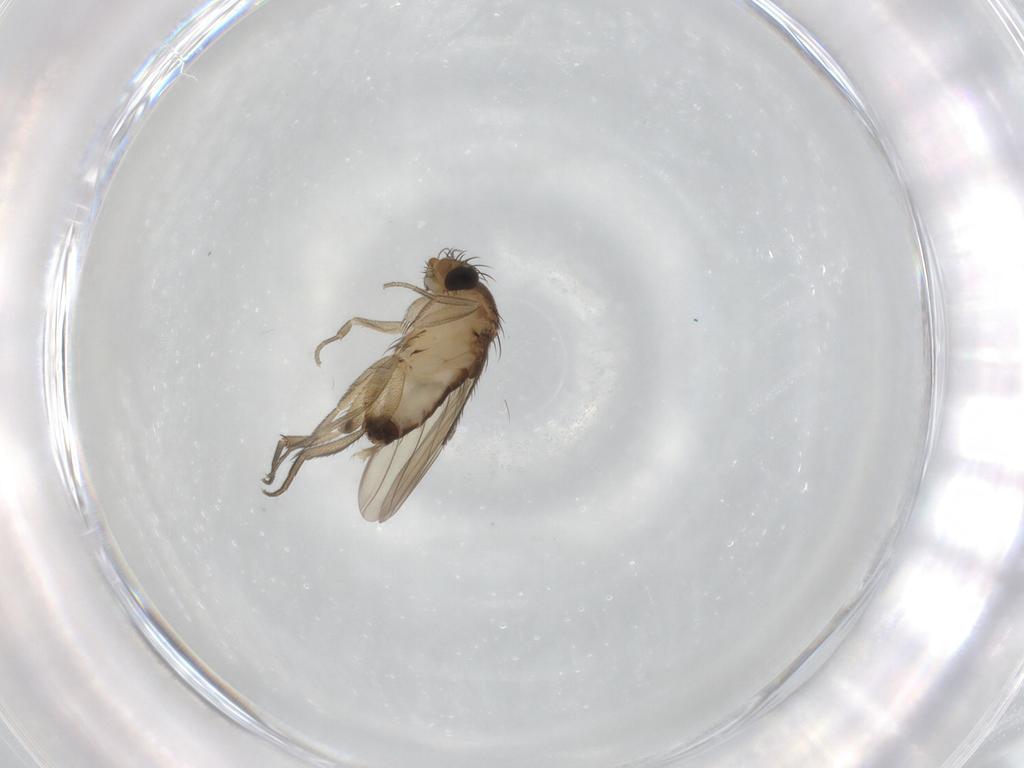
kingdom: Animalia
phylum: Arthropoda
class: Insecta
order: Diptera
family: Phoridae
